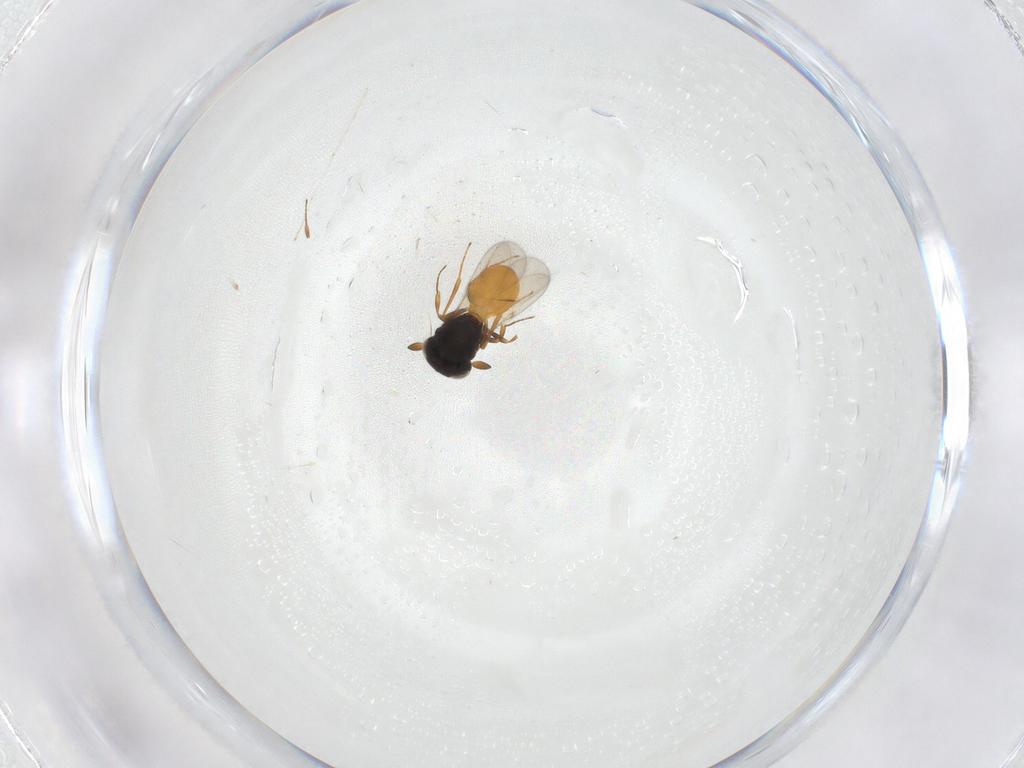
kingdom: Animalia
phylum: Arthropoda
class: Insecta
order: Hymenoptera
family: Scelionidae
